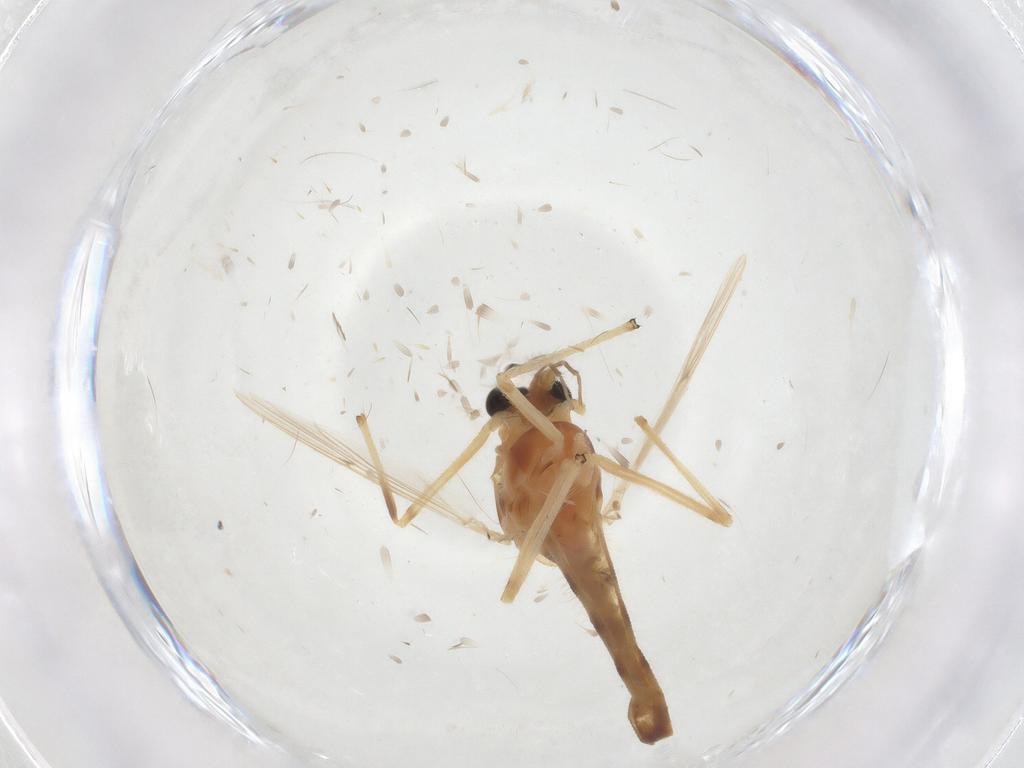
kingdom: Animalia
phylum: Arthropoda
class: Insecta
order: Diptera
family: Chironomidae
